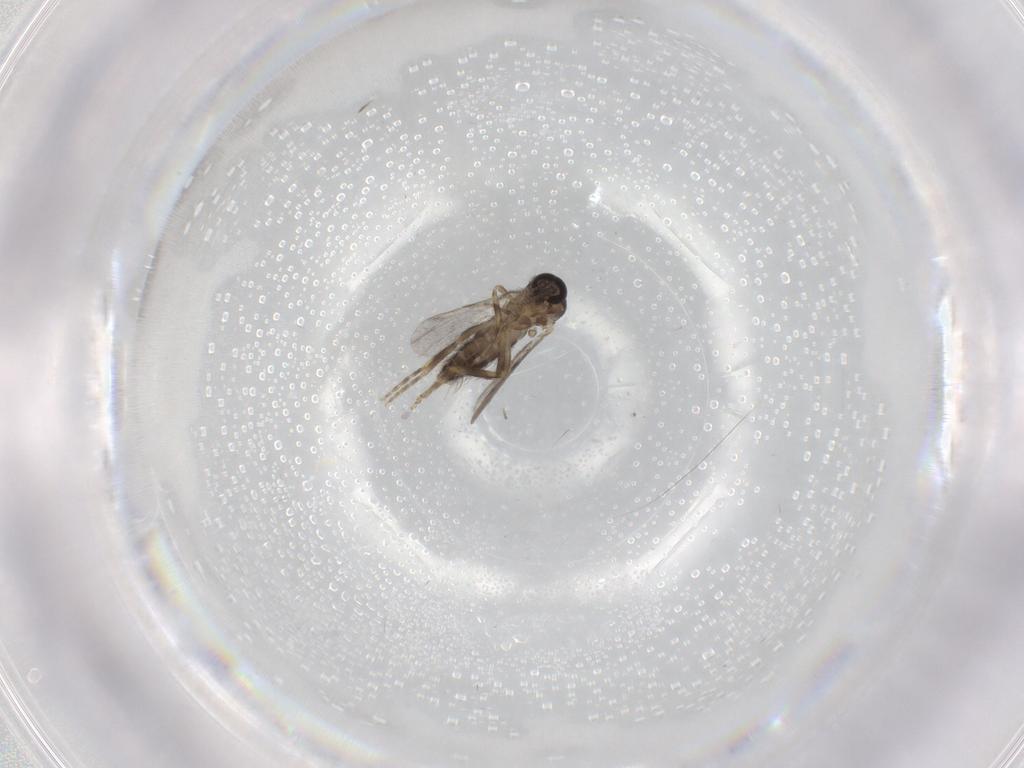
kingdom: Animalia
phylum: Arthropoda
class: Insecta
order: Diptera
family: Ceratopogonidae
